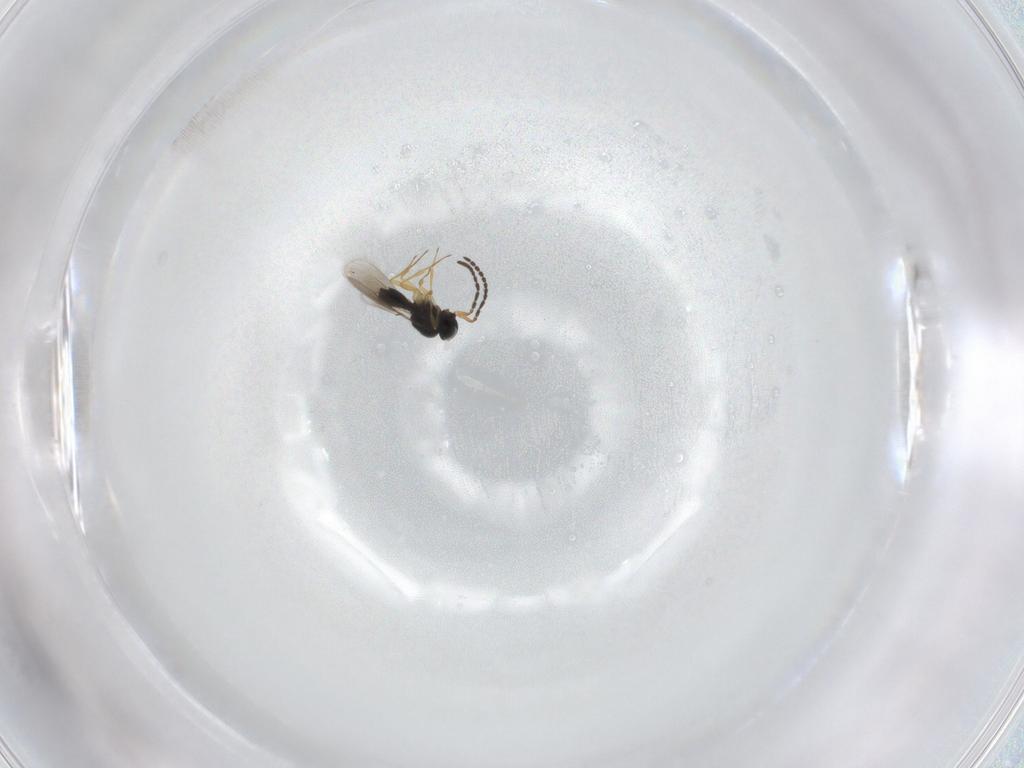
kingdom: Animalia
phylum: Arthropoda
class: Insecta
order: Hymenoptera
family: Scelionidae
